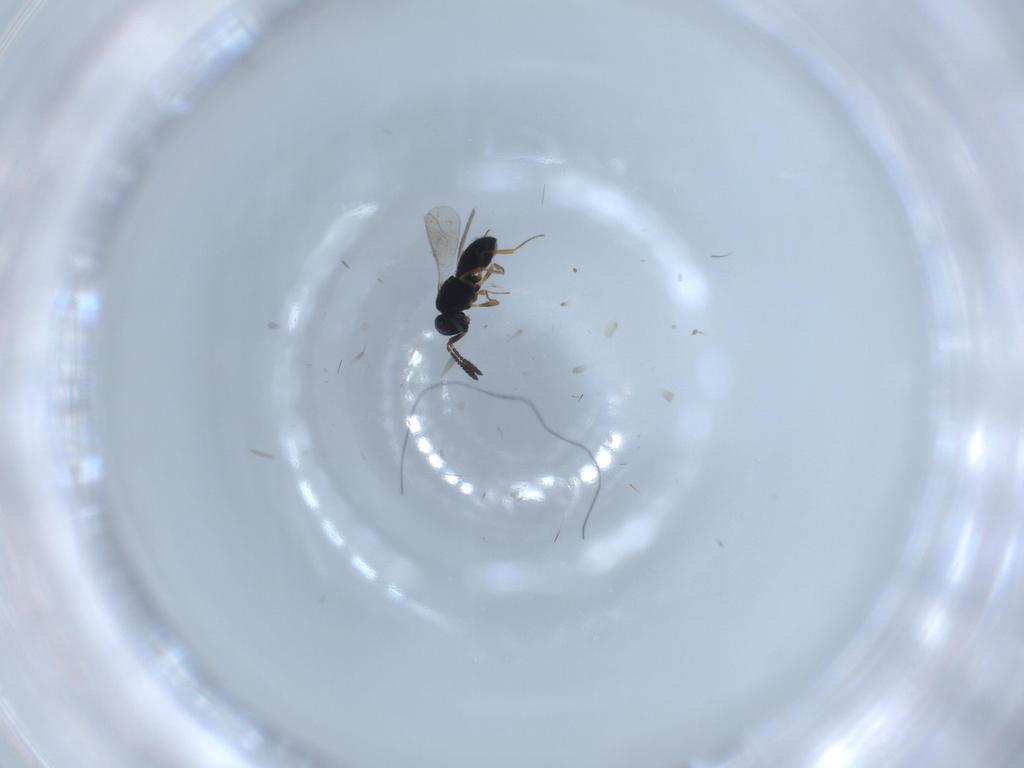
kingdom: Animalia
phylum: Arthropoda
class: Insecta
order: Hymenoptera
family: Scelionidae
